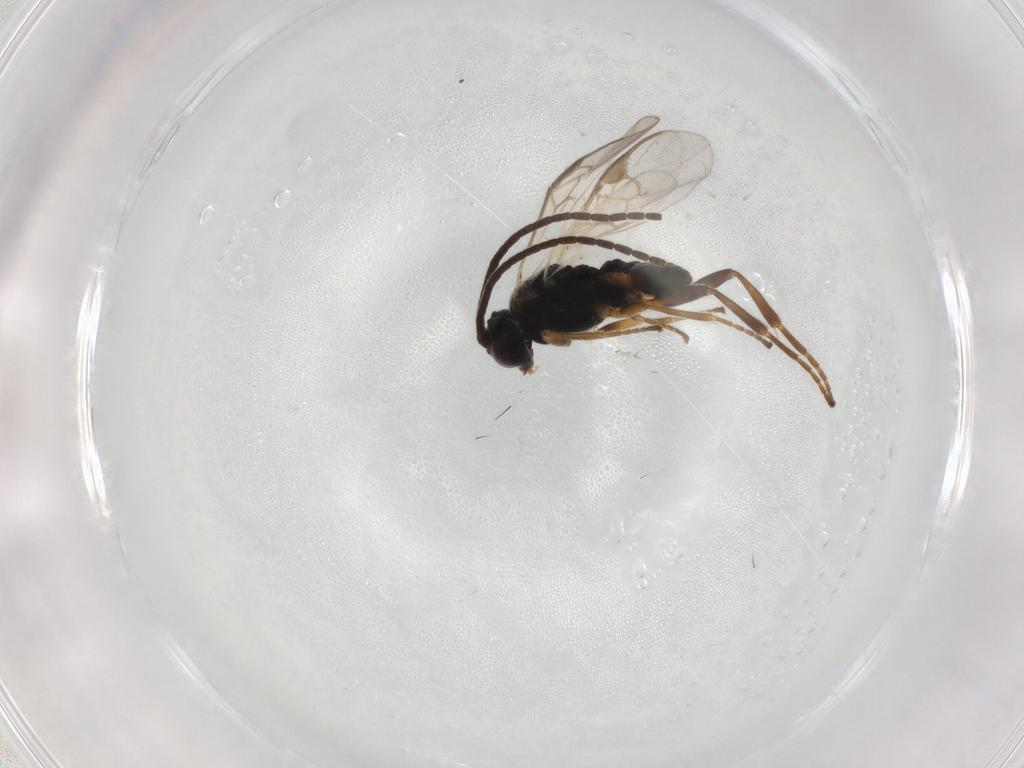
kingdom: Animalia
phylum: Arthropoda
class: Insecta
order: Hymenoptera
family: Braconidae
